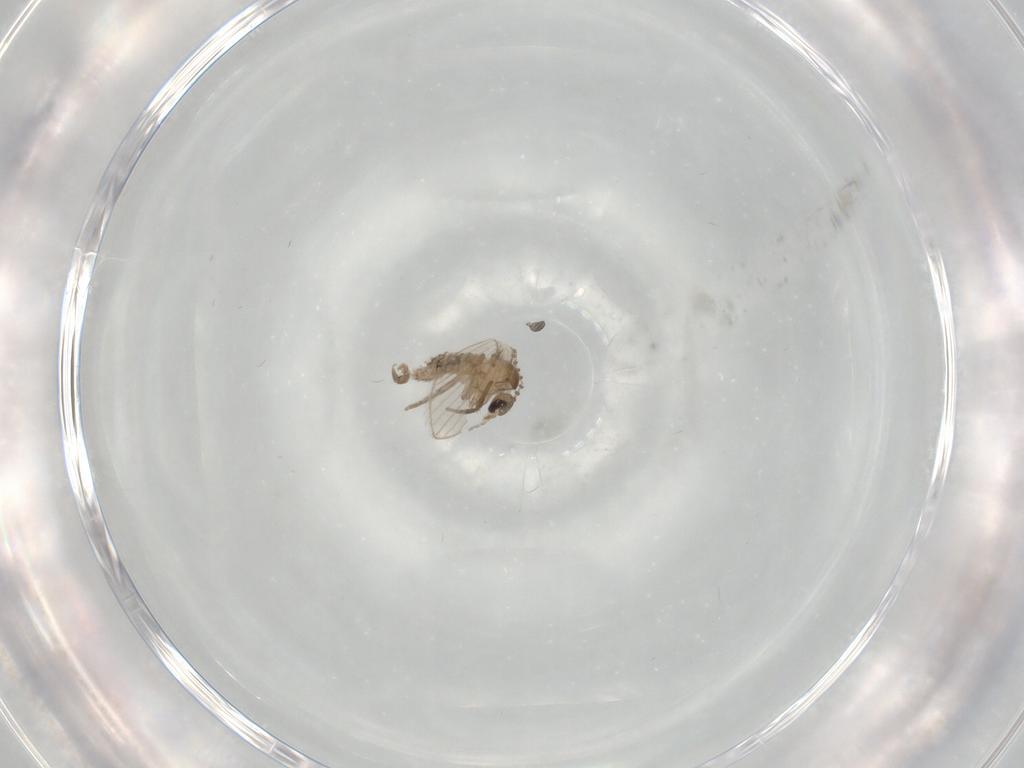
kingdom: Animalia
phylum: Arthropoda
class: Insecta
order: Diptera
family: Psychodidae
